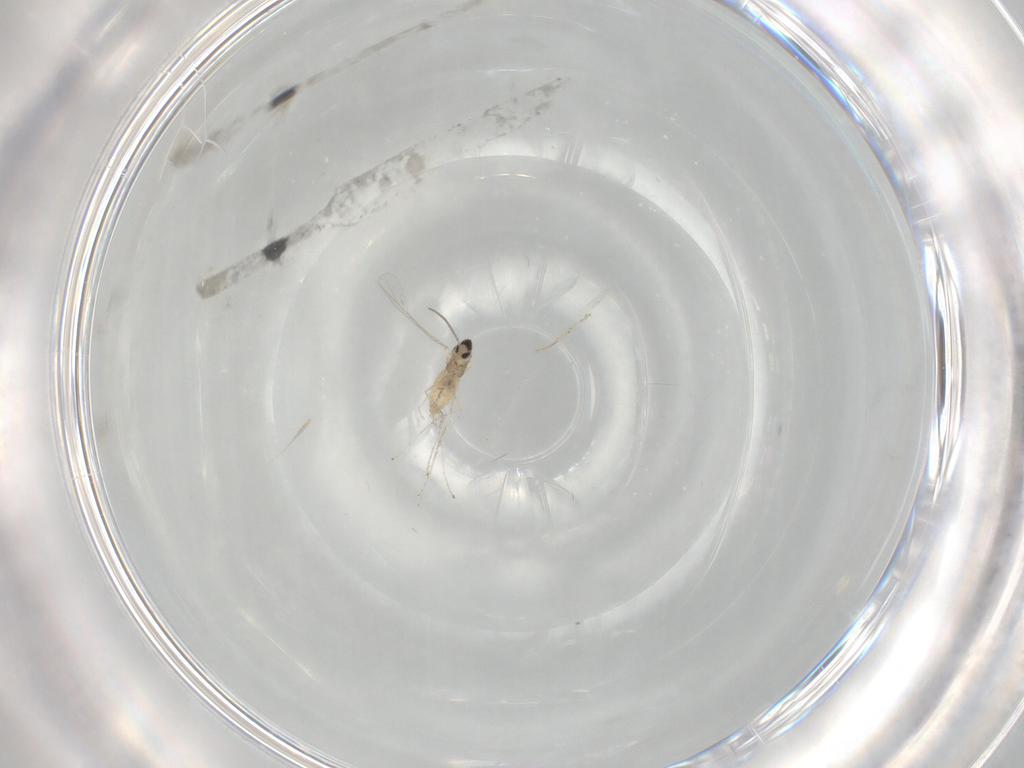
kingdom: Animalia
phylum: Arthropoda
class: Insecta
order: Diptera
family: Cecidomyiidae
